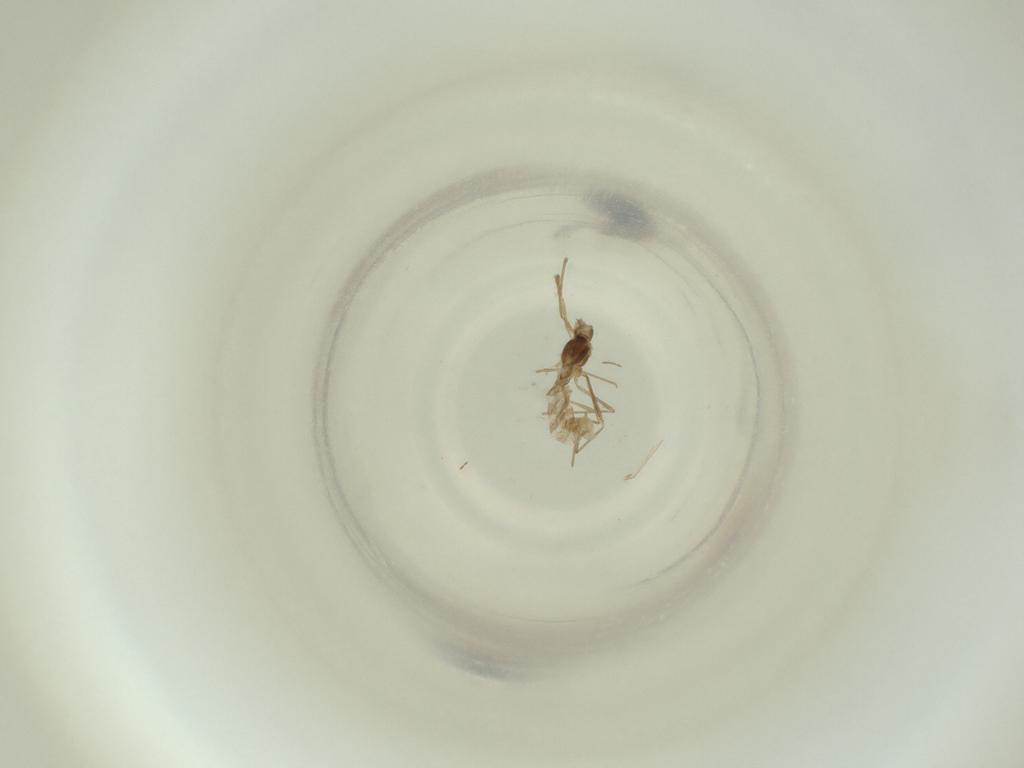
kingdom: Animalia
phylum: Arthropoda
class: Insecta
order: Diptera
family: Cecidomyiidae
